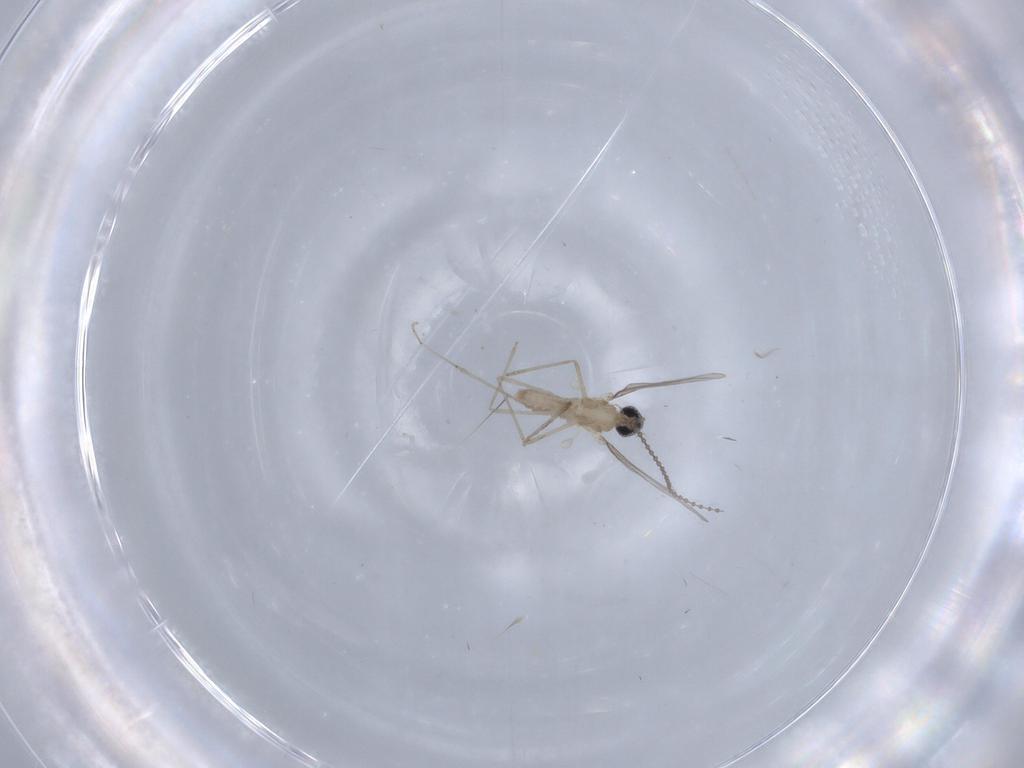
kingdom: Animalia
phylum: Arthropoda
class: Insecta
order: Diptera
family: Cecidomyiidae
